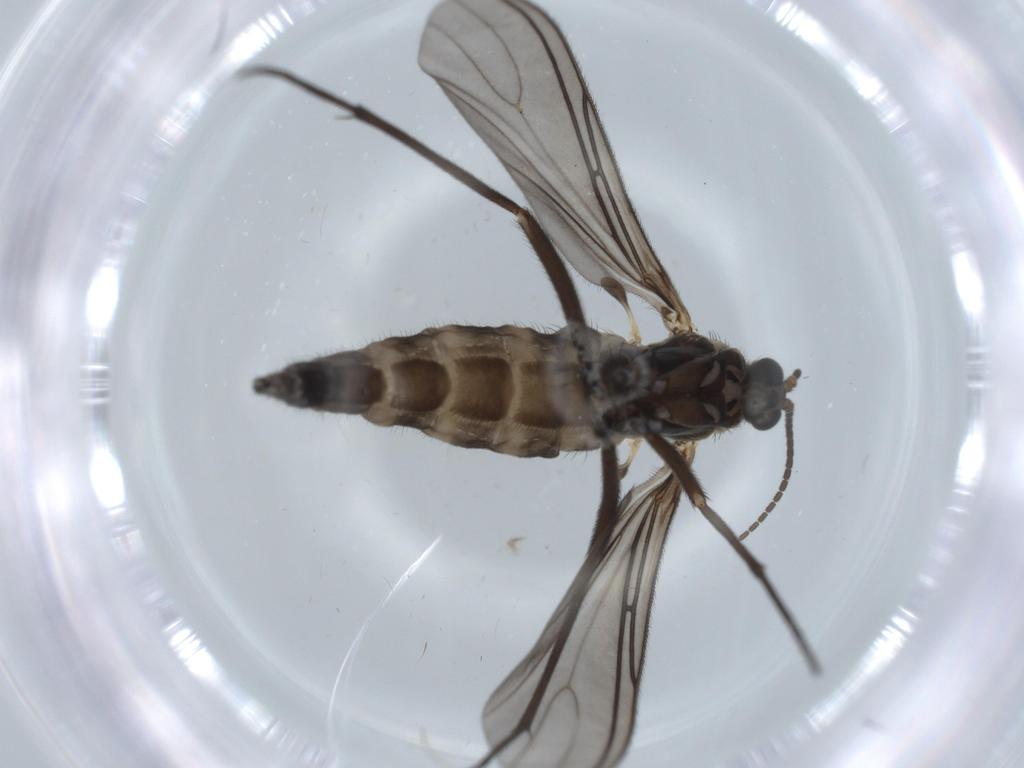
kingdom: Animalia
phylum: Arthropoda
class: Insecta
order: Diptera
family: Sciaridae
